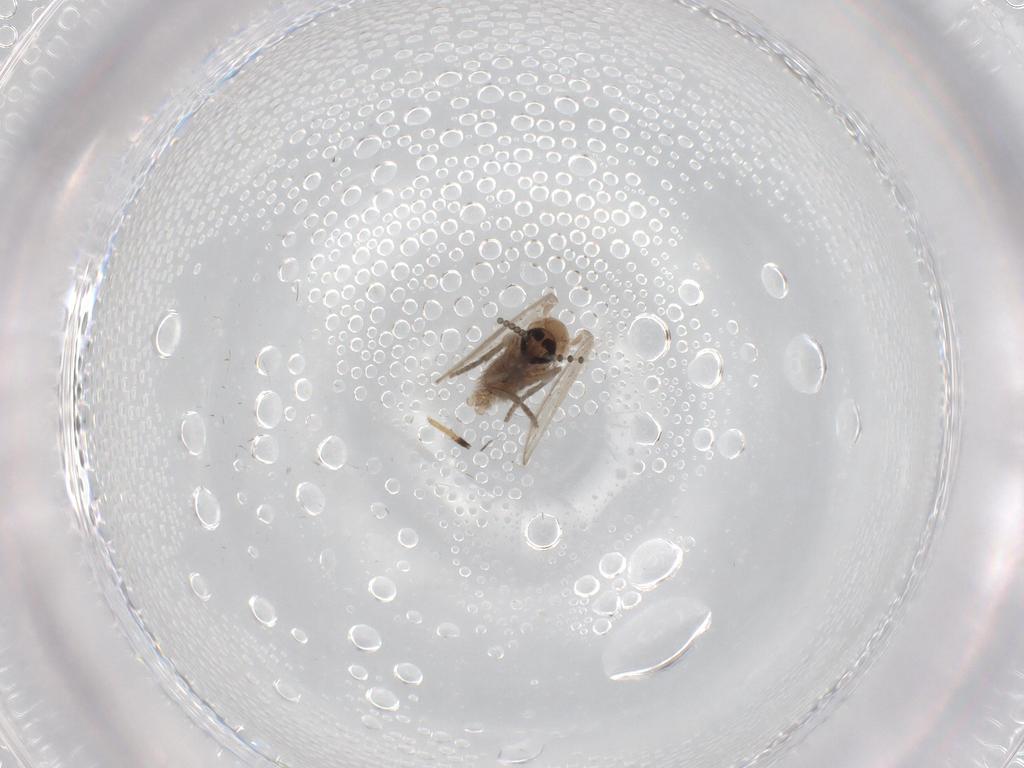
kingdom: Animalia
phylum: Arthropoda
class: Insecta
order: Diptera
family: Psychodidae
